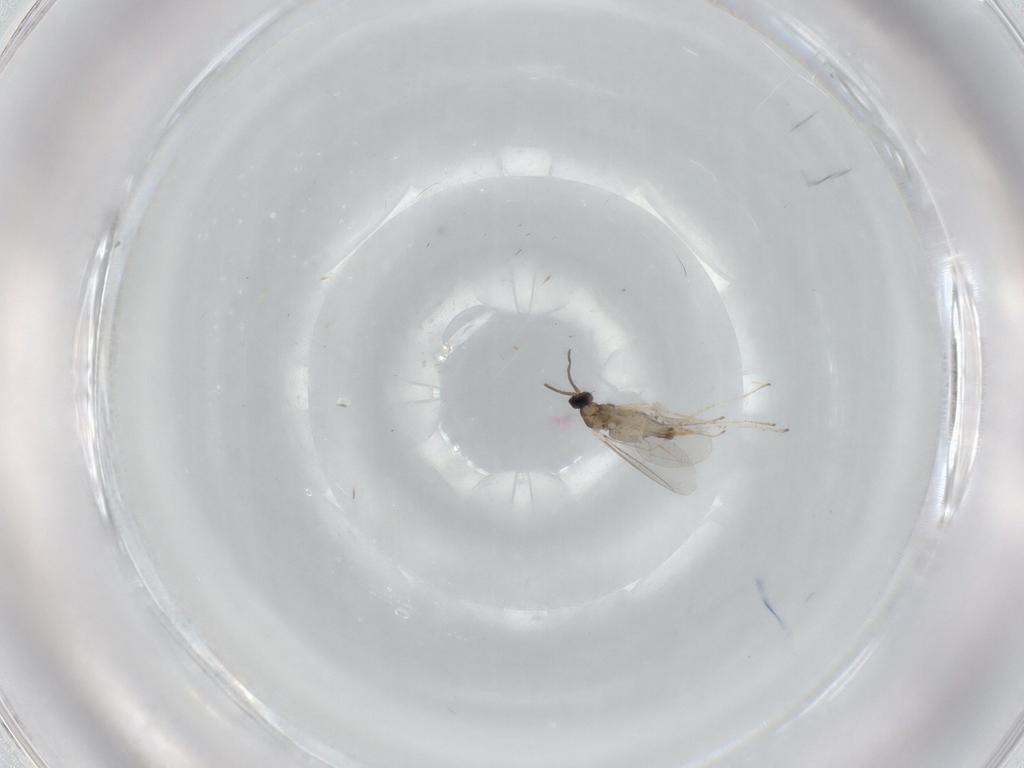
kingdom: Animalia
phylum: Arthropoda
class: Insecta
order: Diptera
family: Cecidomyiidae
